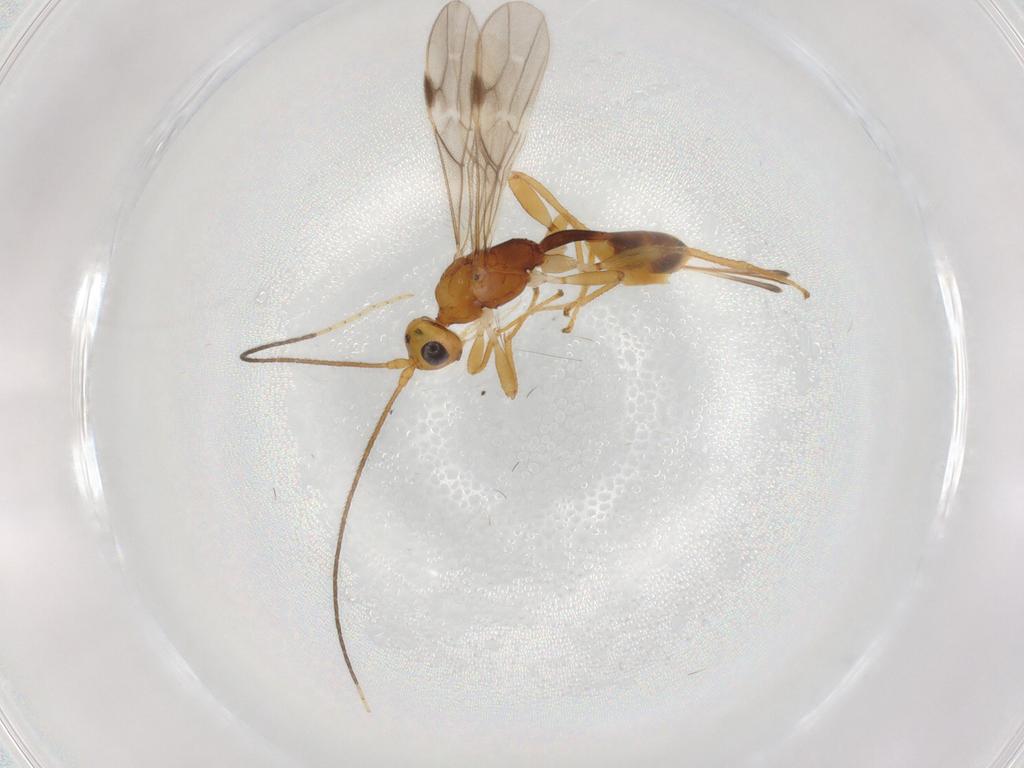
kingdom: Animalia
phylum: Arthropoda
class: Insecta
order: Hymenoptera
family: Braconidae
